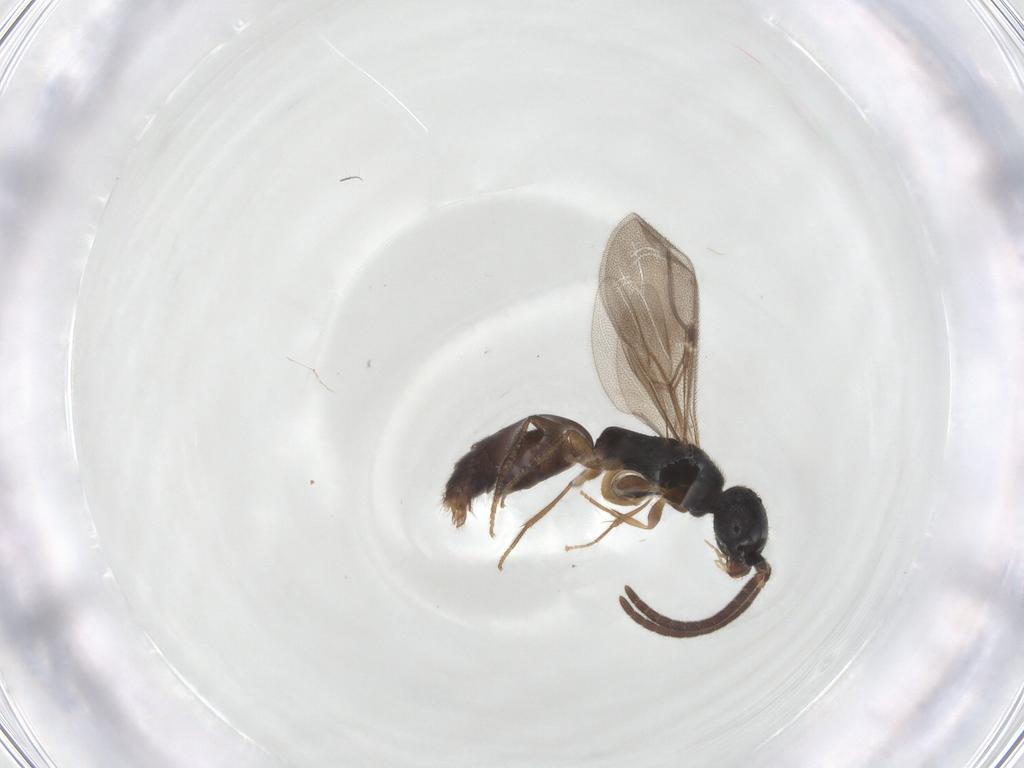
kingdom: Animalia
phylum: Arthropoda
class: Insecta
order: Hymenoptera
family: Bethylidae
